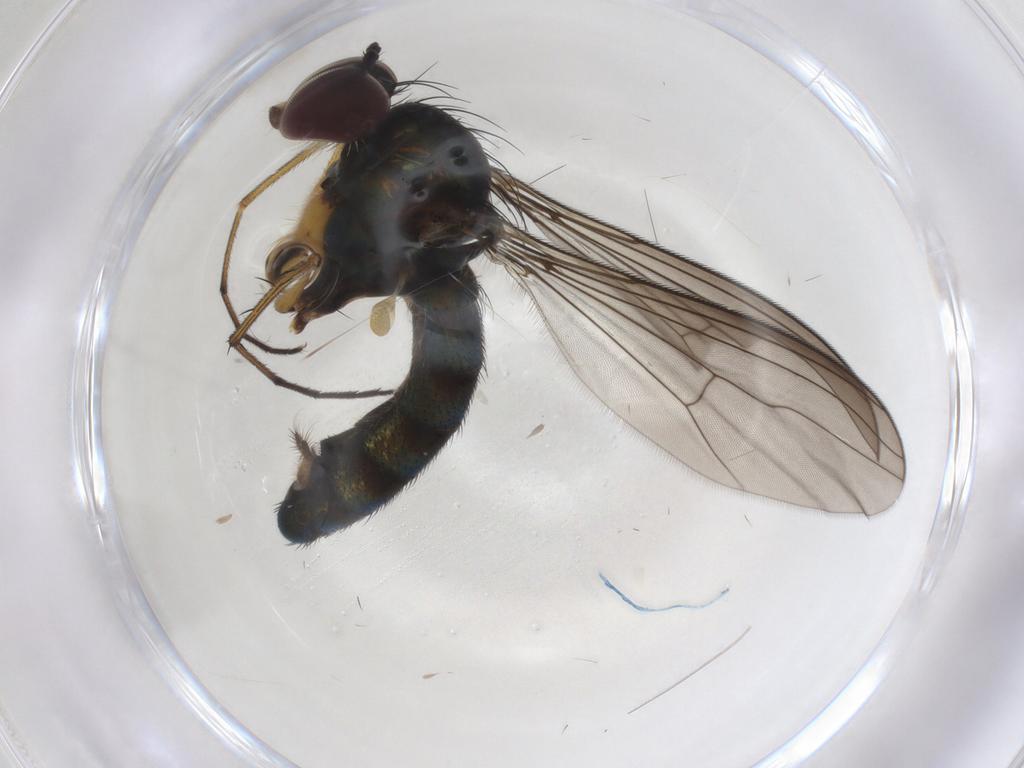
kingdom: Animalia
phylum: Arthropoda
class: Insecta
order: Diptera
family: Dolichopodidae
